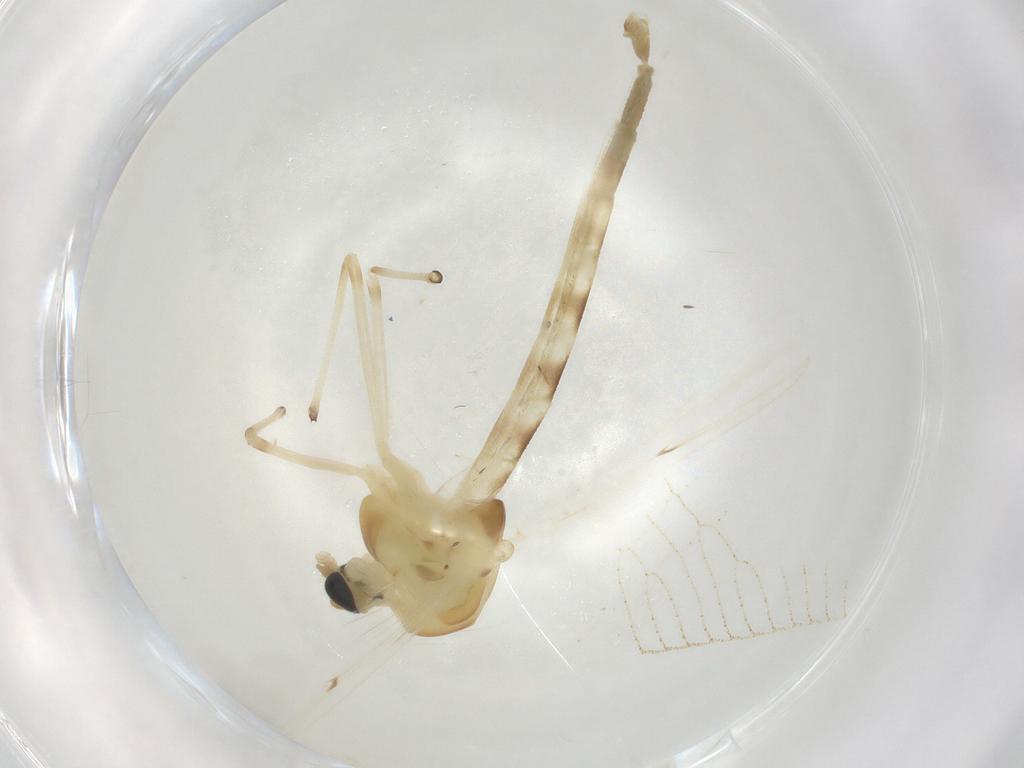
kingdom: Animalia
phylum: Arthropoda
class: Insecta
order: Diptera
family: Chironomidae
